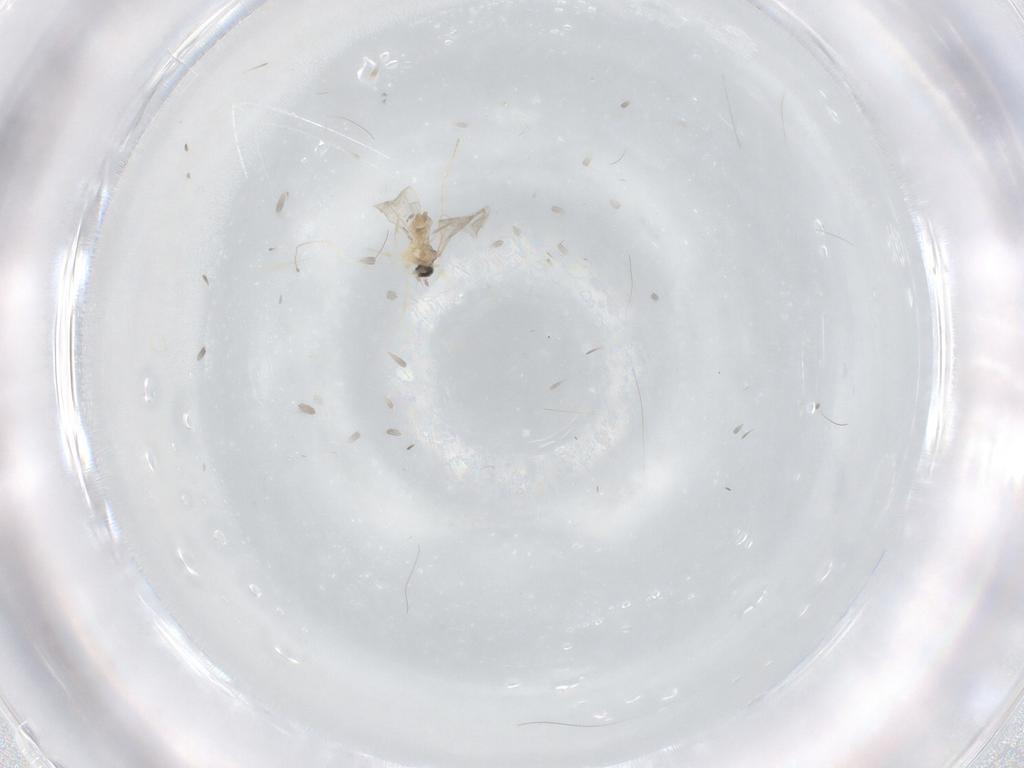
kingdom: Animalia
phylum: Arthropoda
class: Insecta
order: Diptera
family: Cecidomyiidae
